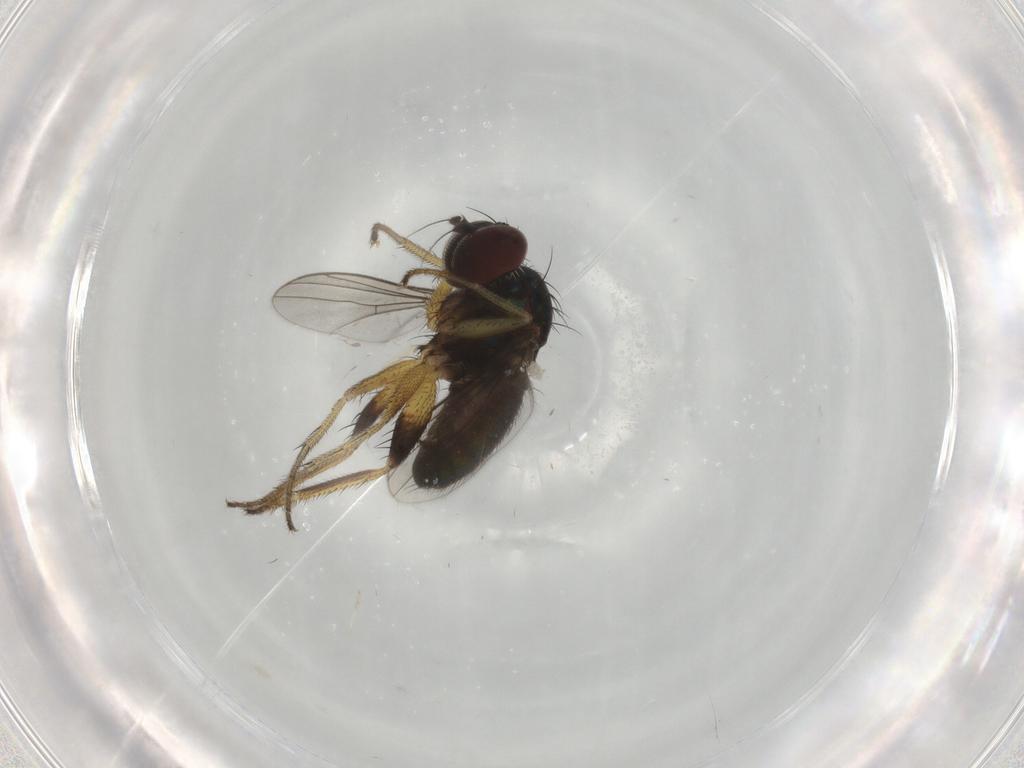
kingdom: Animalia
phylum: Arthropoda
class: Insecta
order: Diptera
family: Dolichopodidae
